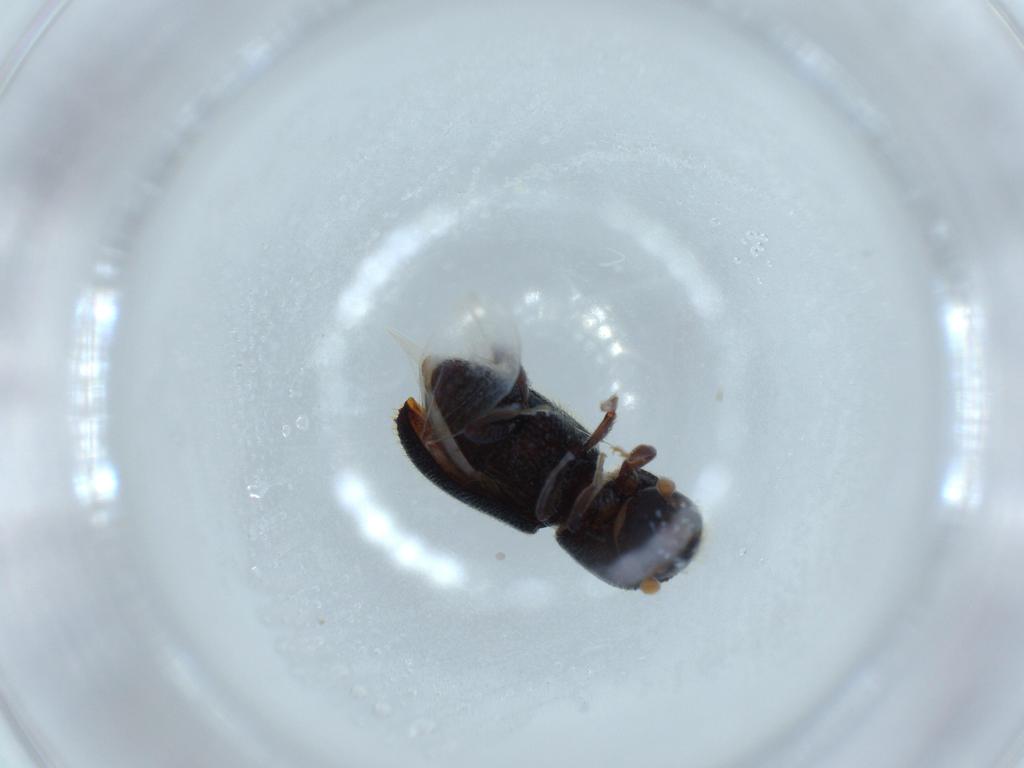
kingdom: Animalia
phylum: Arthropoda
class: Insecta
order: Coleoptera
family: Curculionidae
